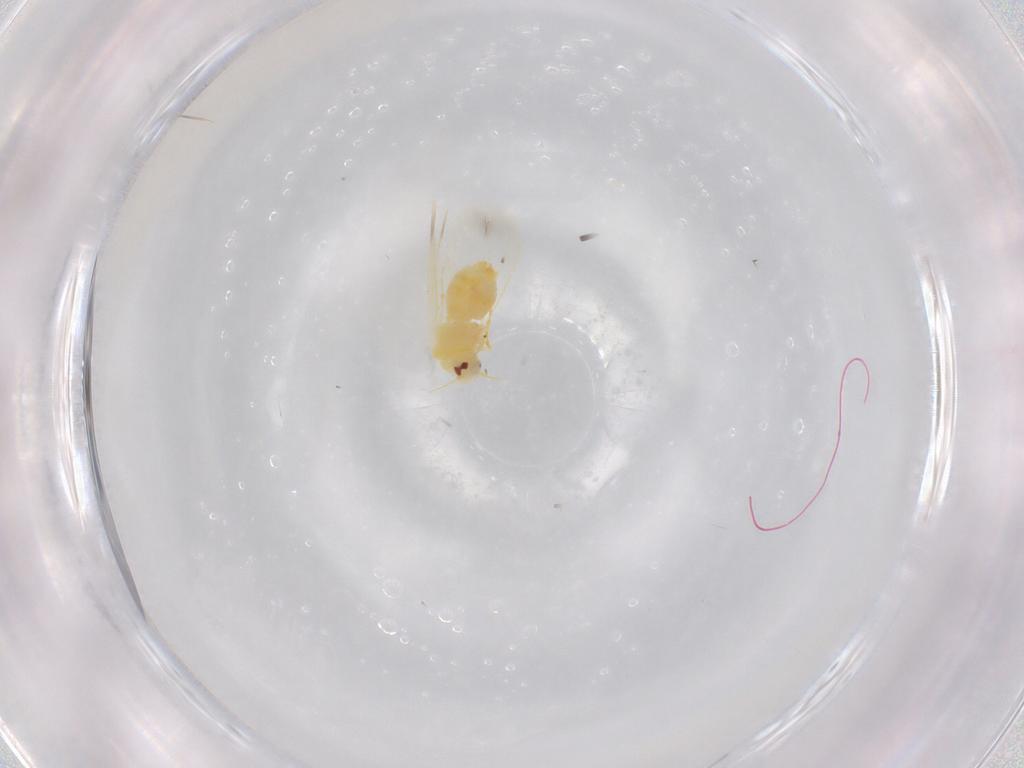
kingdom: Animalia
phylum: Arthropoda
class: Insecta
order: Hemiptera
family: Aleyrodidae
